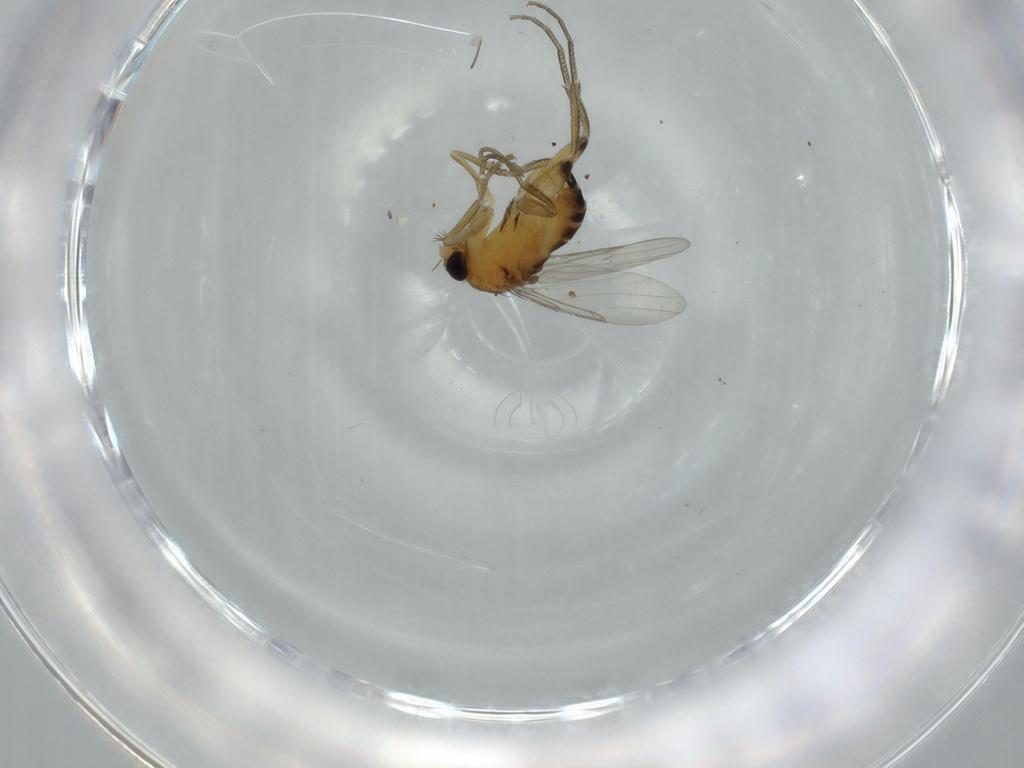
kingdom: Animalia
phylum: Arthropoda
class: Insecta
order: Diptera
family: Phoridae
